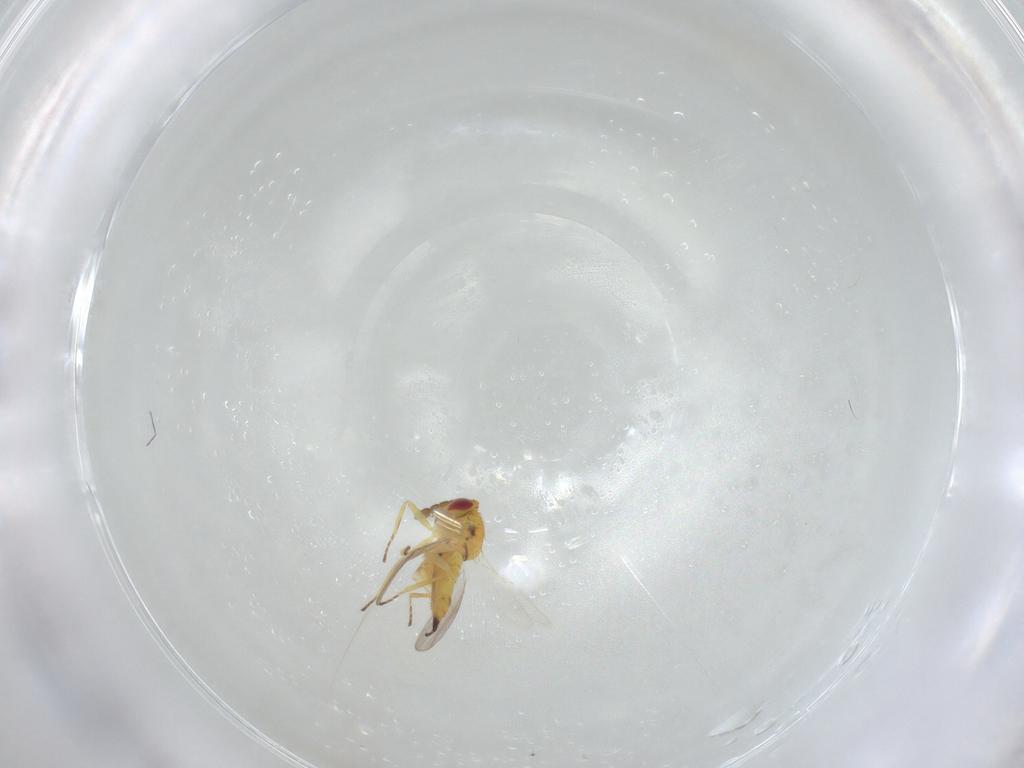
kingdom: Animalia
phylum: Arthropoda
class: Insecta
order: Hymenoptera
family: Eulophidae
